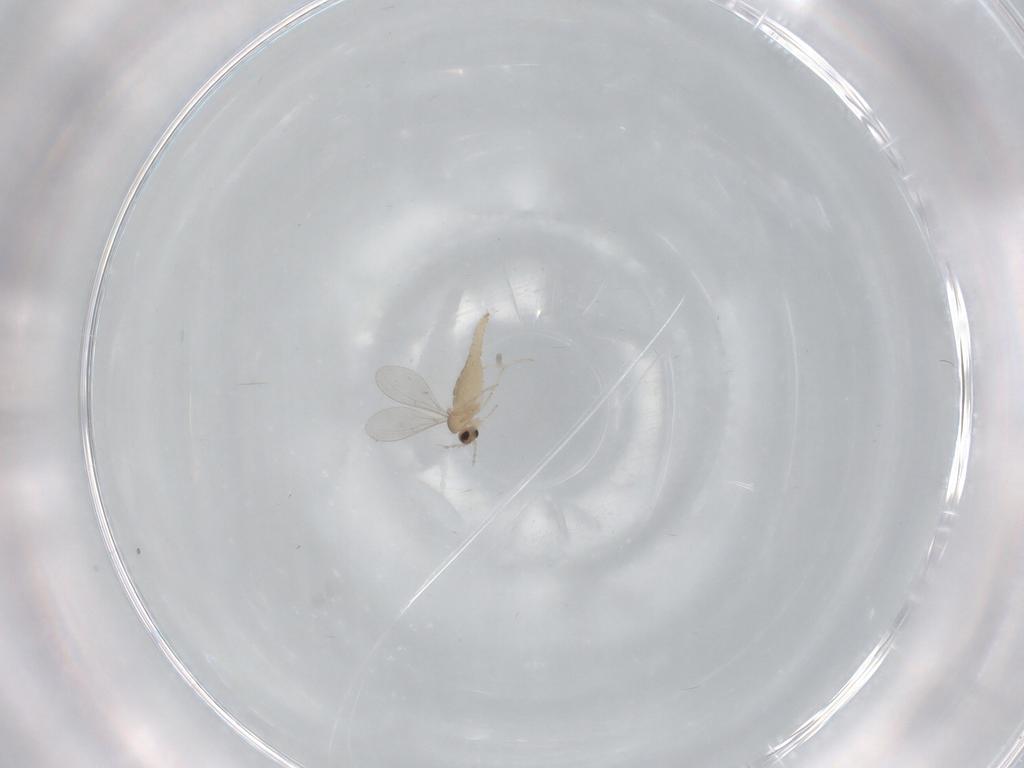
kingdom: Animalia
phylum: Arthropoda
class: Insecta
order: Diptera
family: Cecidomyiidae
